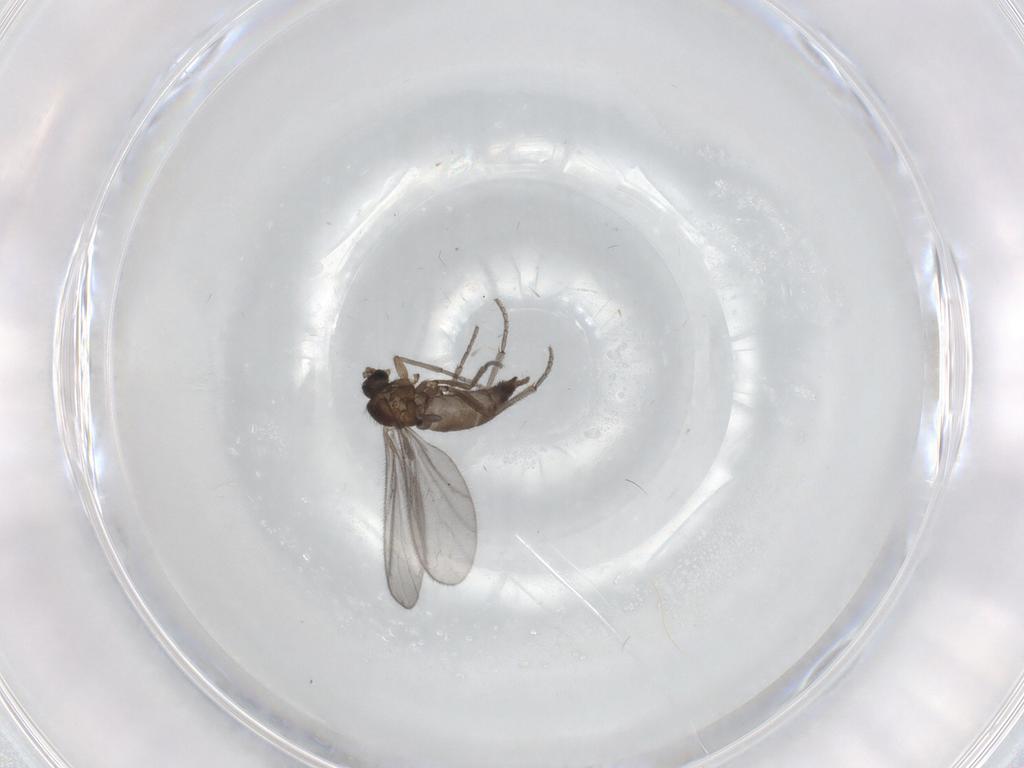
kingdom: Animalia
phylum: Arthropoda
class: Insecta
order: Diptera
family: Sciaridae
